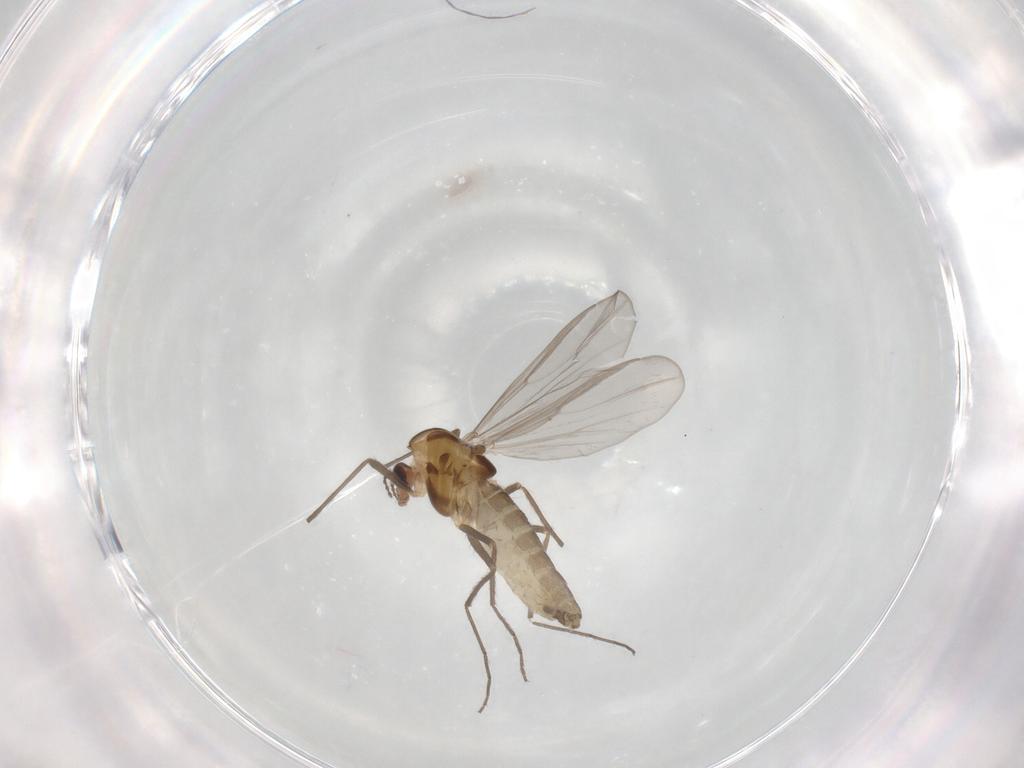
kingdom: Animalia
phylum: Arthropoda
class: Insecta
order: Diptera
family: Chironomidae
